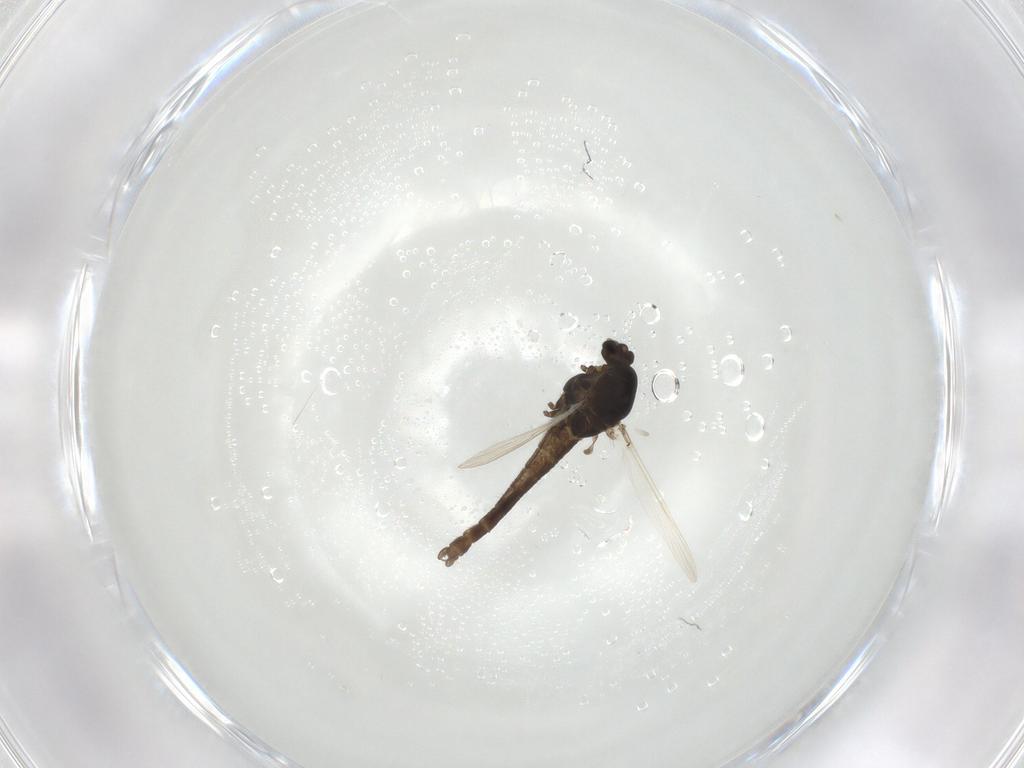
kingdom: Animalia
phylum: Arthropoda
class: Insecta
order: Diptera
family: Chironomidae
